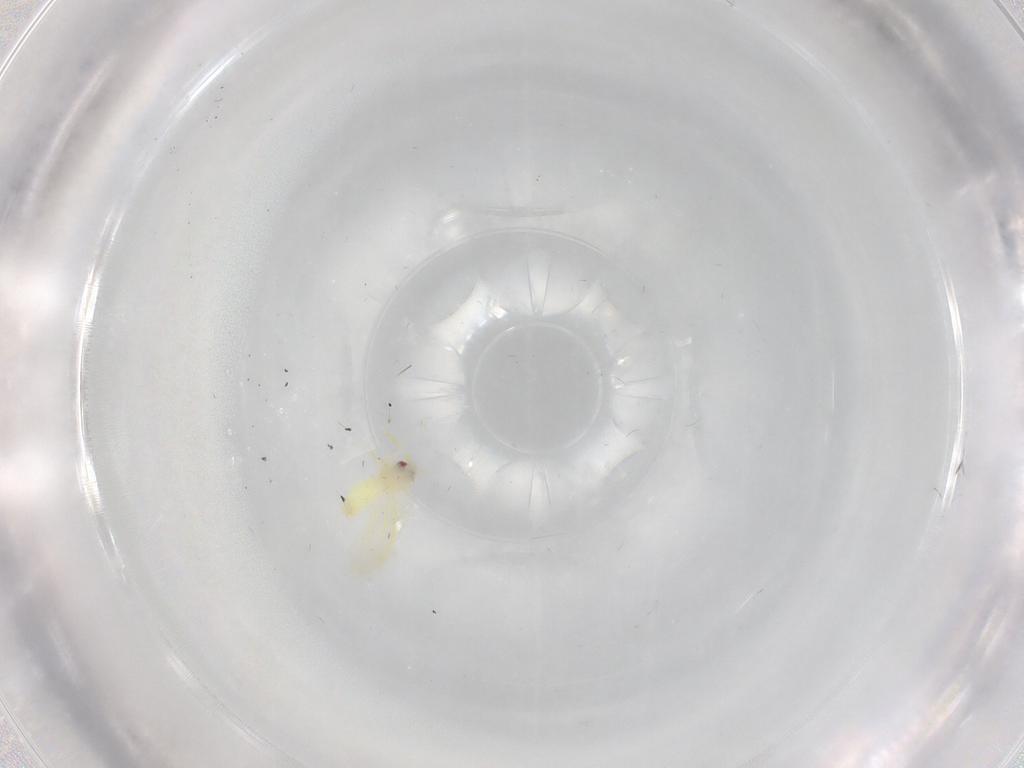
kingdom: Animalia
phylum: Arthropoda
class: Insecta
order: Hemiptera
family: Aleyrodidae
